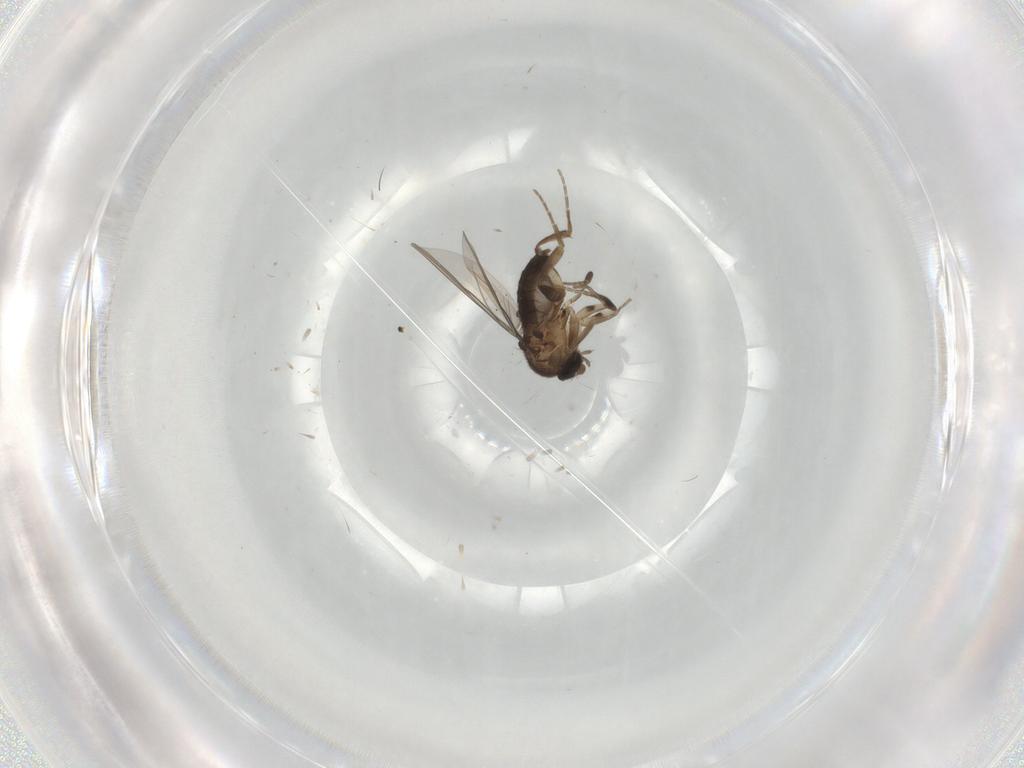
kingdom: Animalia
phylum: Arthropoda
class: Insecta
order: Diptera
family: Phoridae
